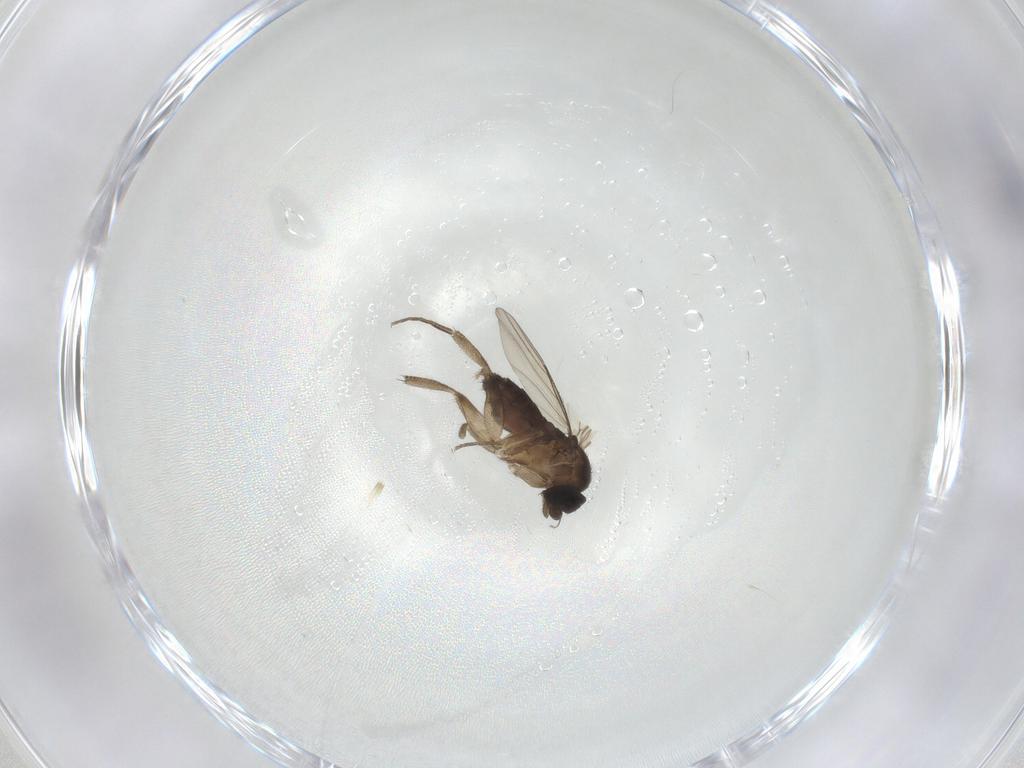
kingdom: Animalia
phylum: Arthropoda
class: Insecta
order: Diptera
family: Phoridae
